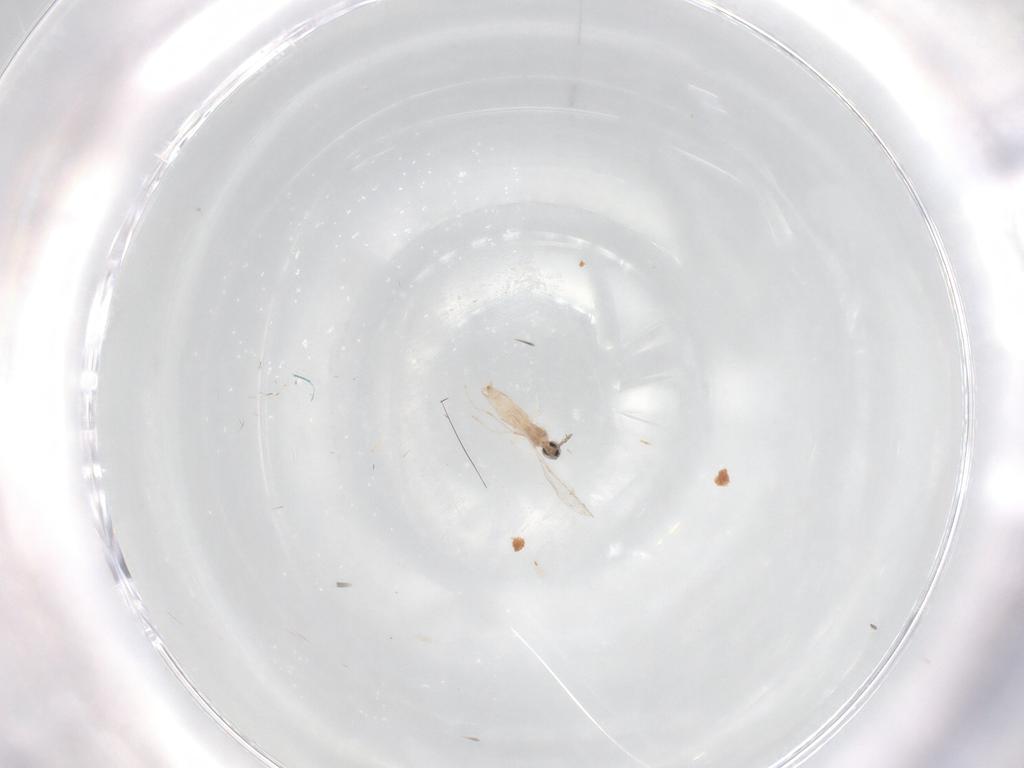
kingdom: Animalia
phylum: Arthropoda
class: Insecta
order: Diptera
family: Cecidomyiidae
